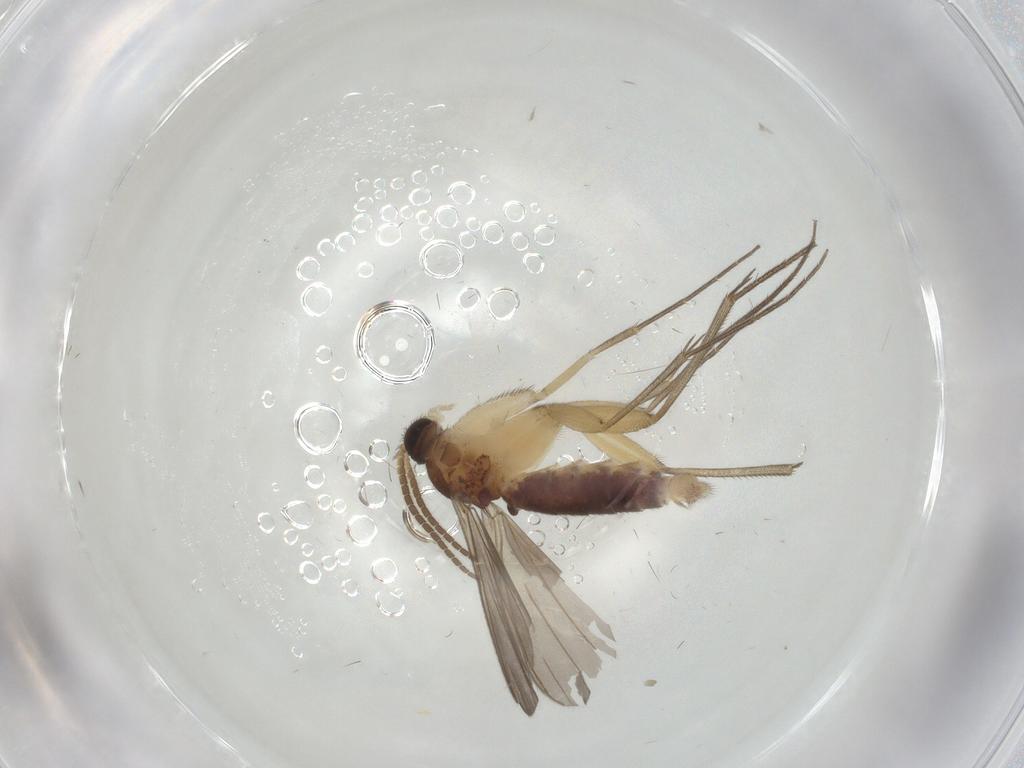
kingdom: Animalia
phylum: Arthropoda
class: Insecta
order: Diptera
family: Mycetophilidae
